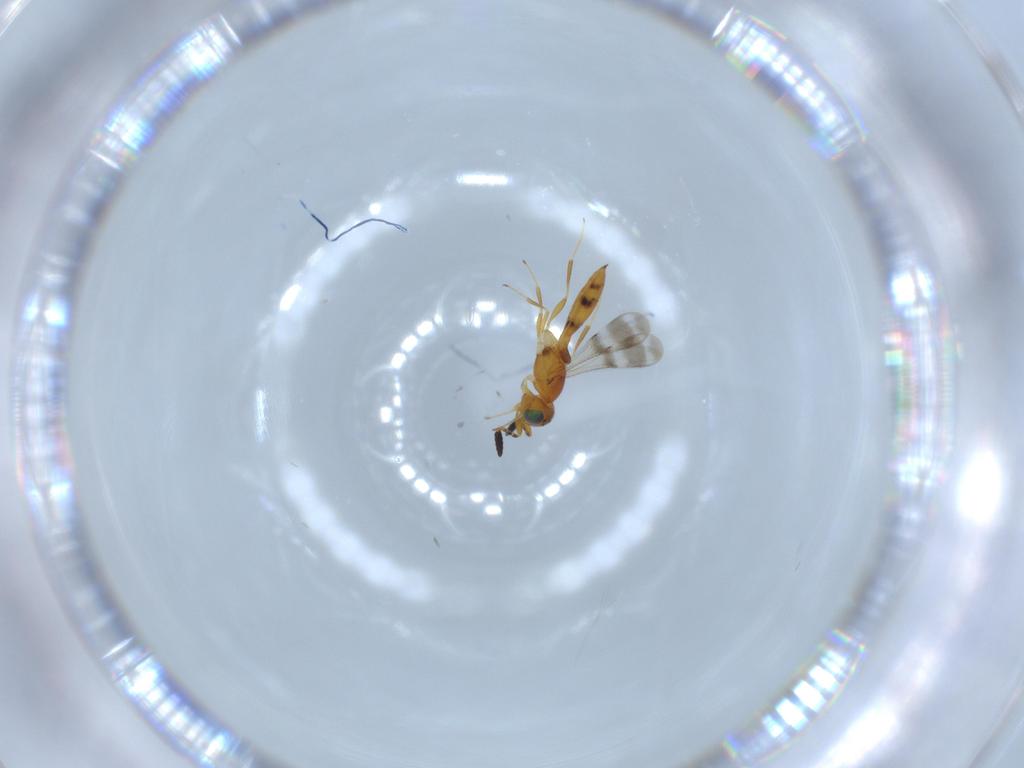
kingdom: Animalia
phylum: Arthropoda
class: Insecta
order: Hymenoptera
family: Scelionidae
